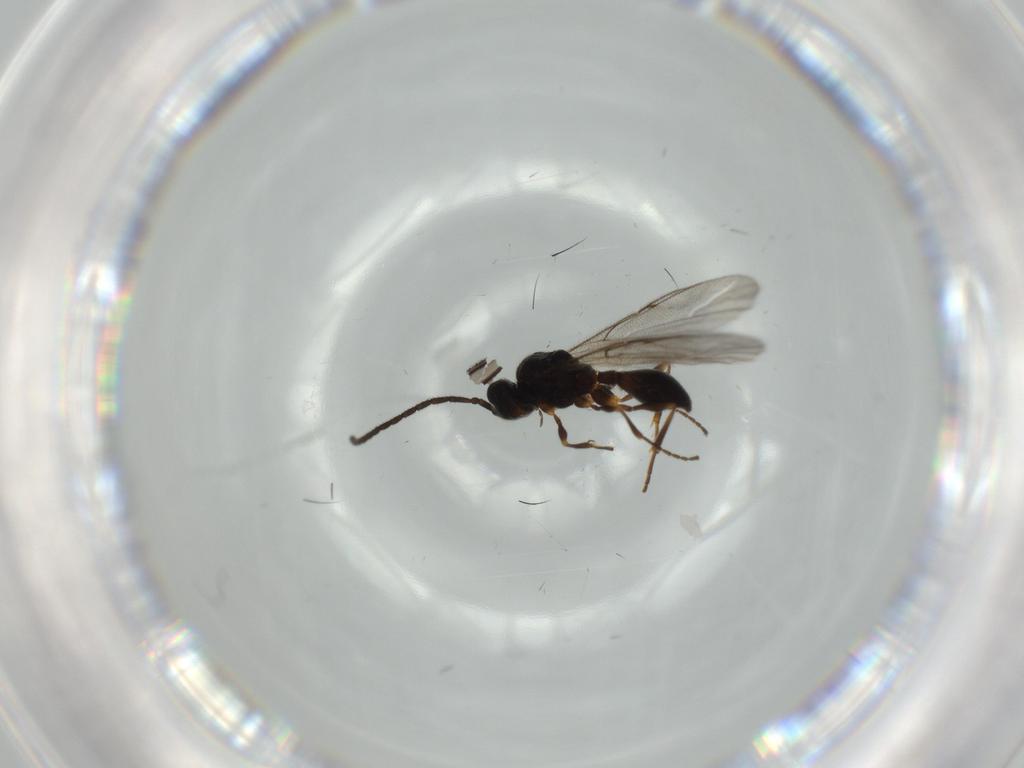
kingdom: Animalia
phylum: Arthropoda
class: Insecta
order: Hymenoptera
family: Diapriidae
